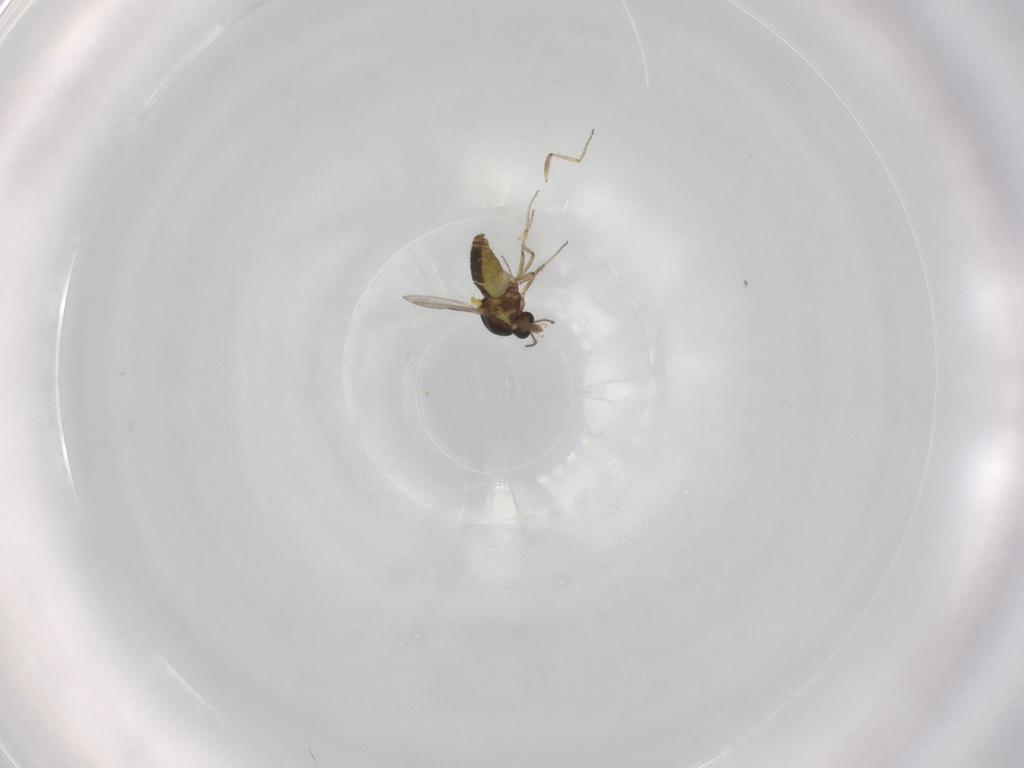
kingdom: Animalia
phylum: Arthropoda
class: Insecta
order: Diptera
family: Ceratopogonidae
